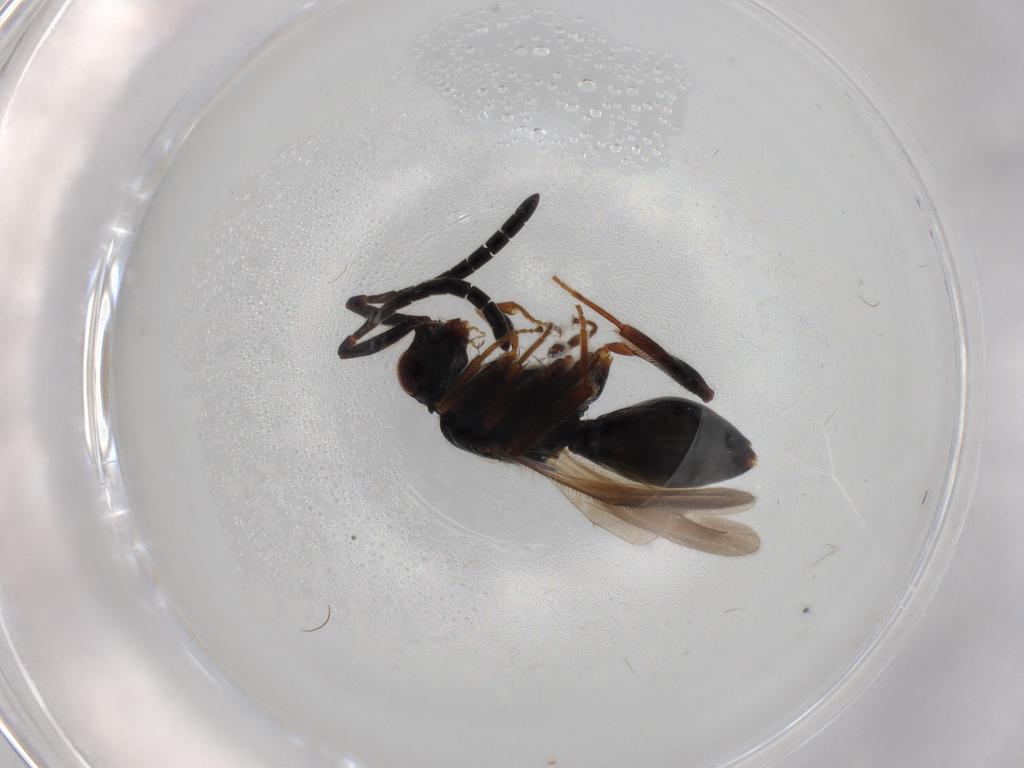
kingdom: Animalia
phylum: Arthropoda
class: Insecta
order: Hymenoptera
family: Braconidae
